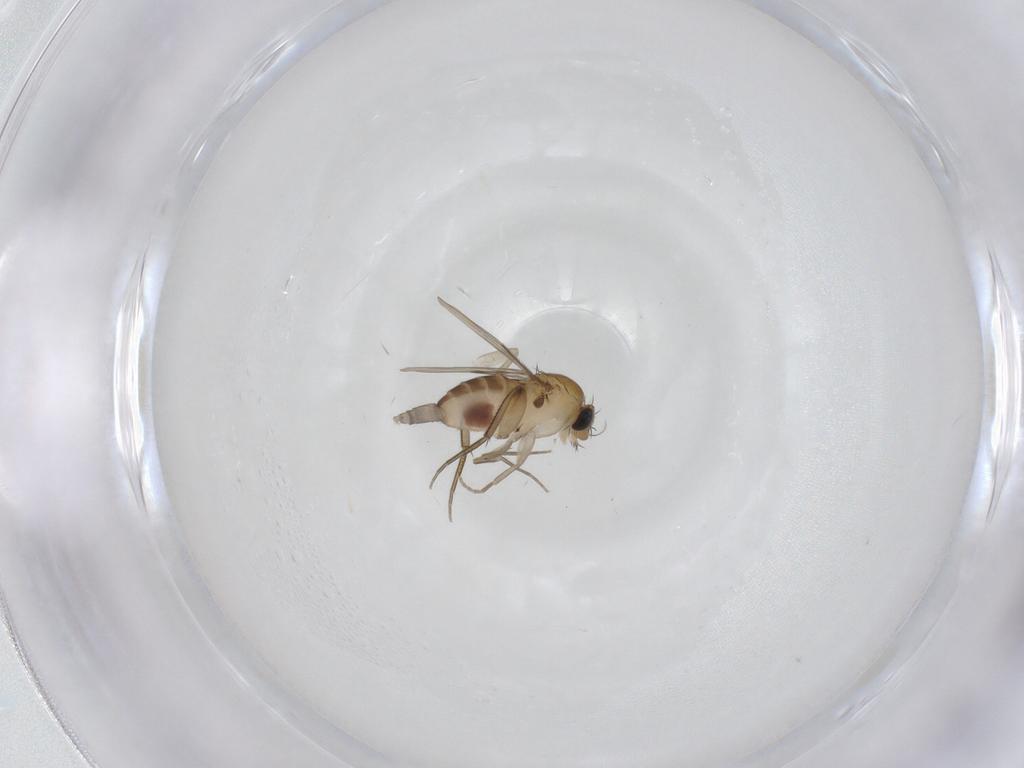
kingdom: Animalia
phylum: Arthropoda
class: Insecta
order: Diptera
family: Phoridae
